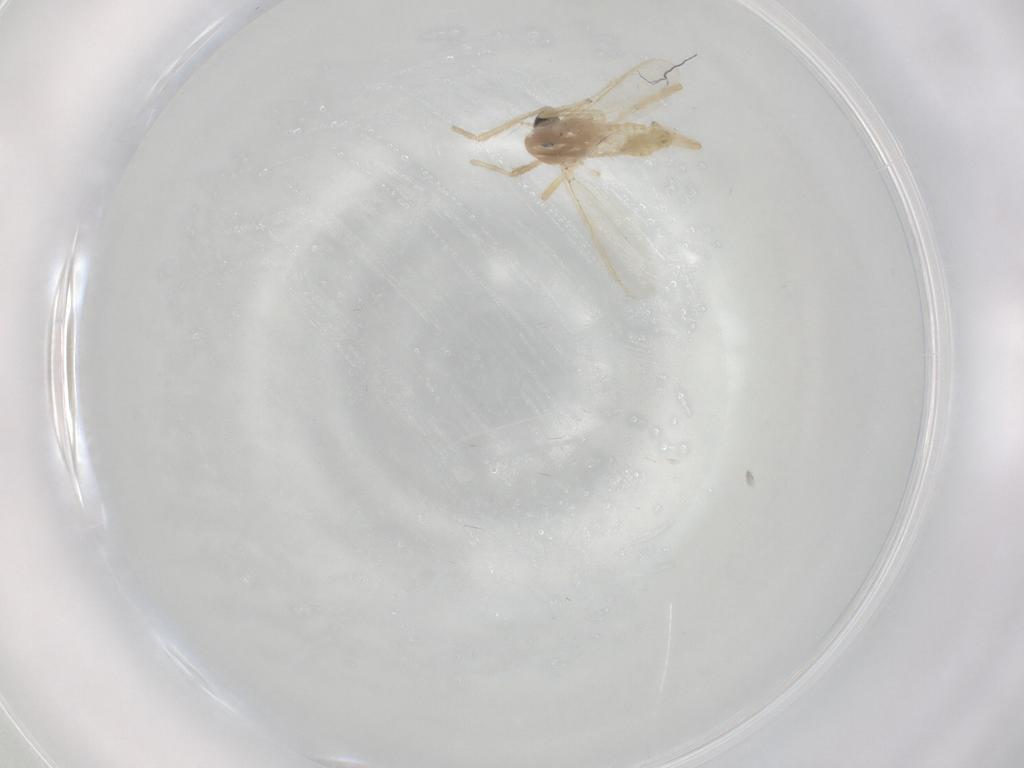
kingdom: Animalia
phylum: Arthropoda
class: Insecta
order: Diptera
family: Chironomidae
